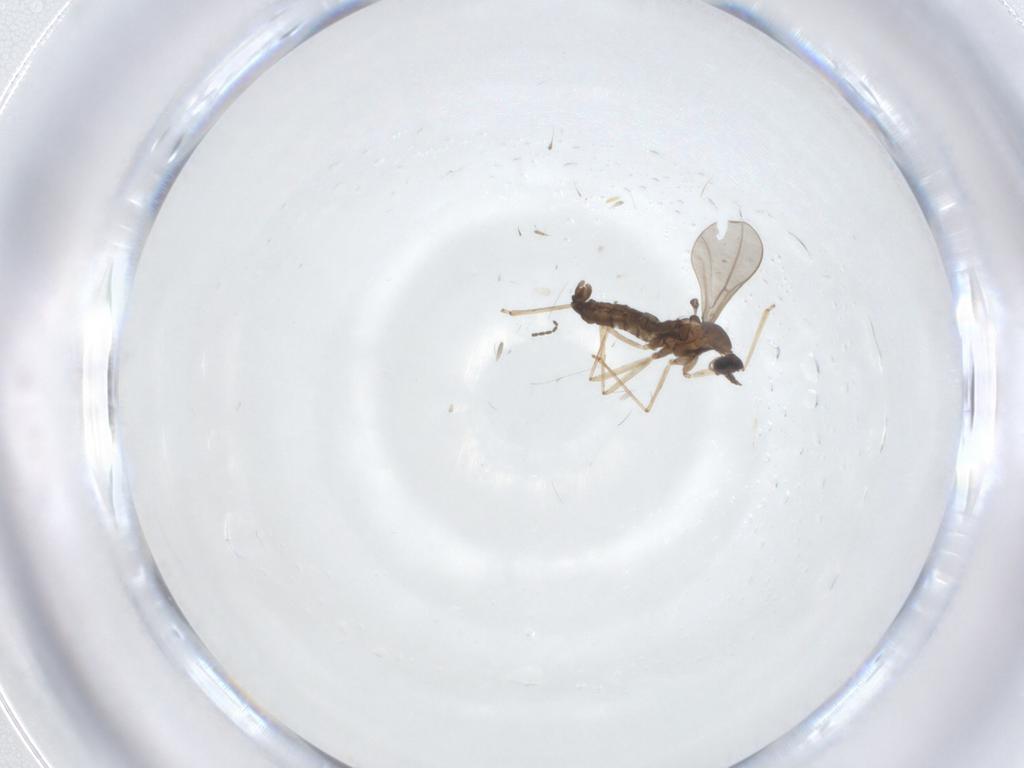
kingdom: Animalia
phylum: Arthropoda
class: Insecta
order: Diptera
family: Cecidomyiidae
